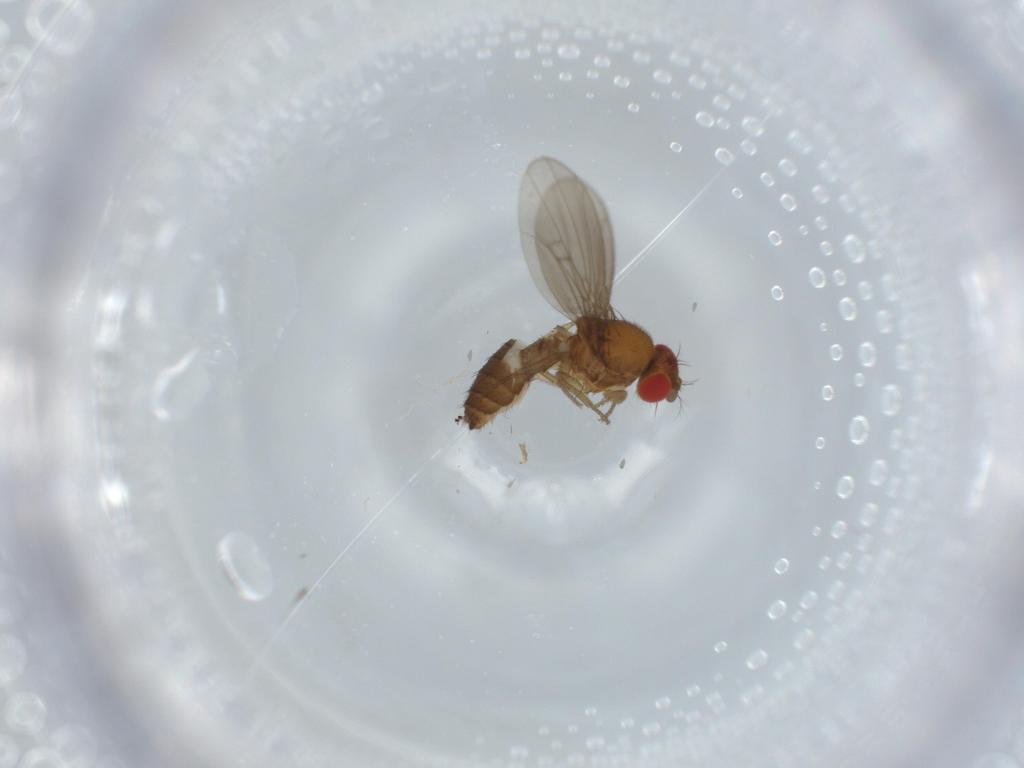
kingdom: Animalia
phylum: Arthropoda
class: Insecta
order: Diptera
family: Drosophilidae
